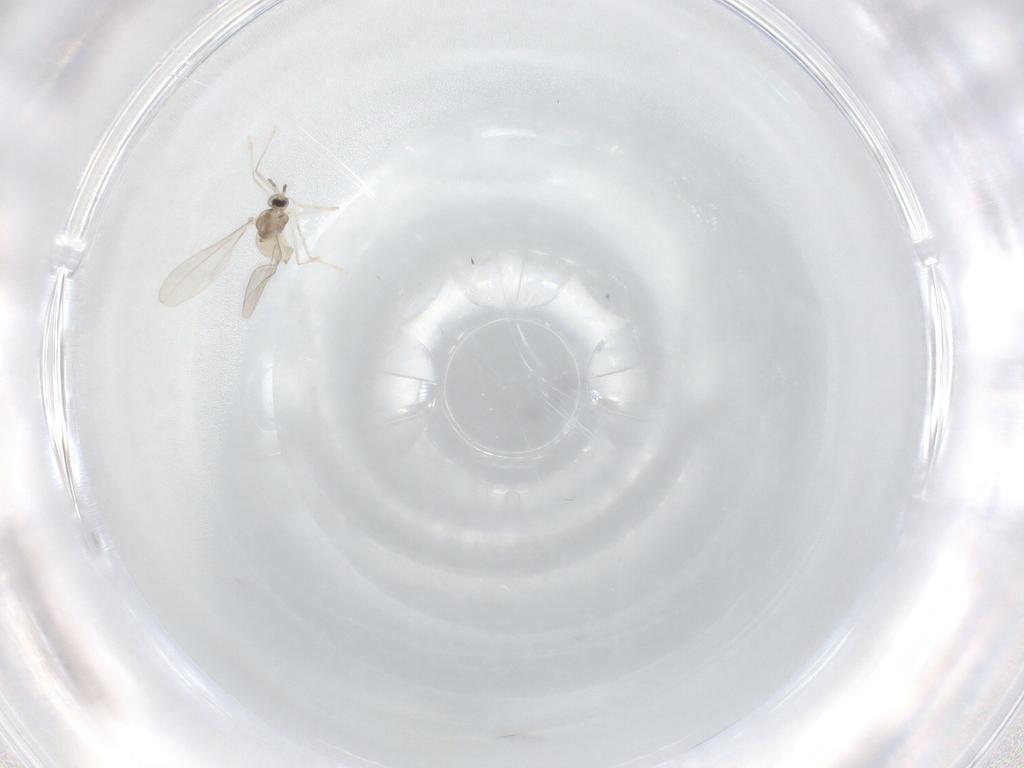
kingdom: Animalia
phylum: Arthropoda
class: Insecta
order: Diptera
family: Cecidomyiidae
